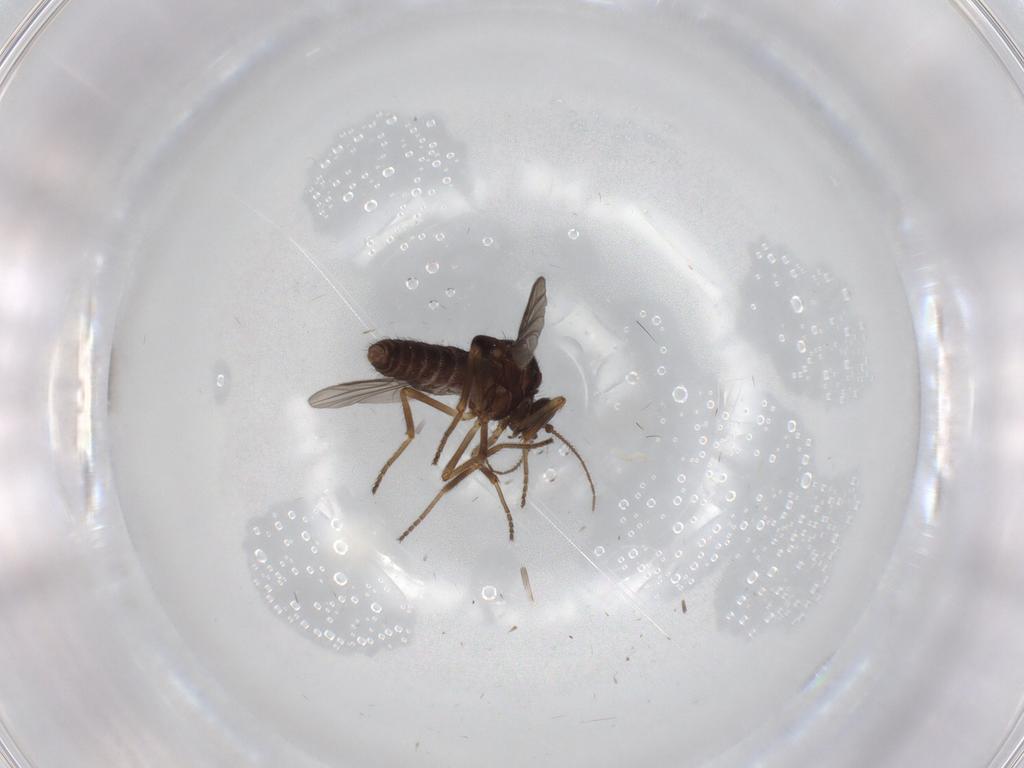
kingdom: Animalia
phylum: Arthropoda
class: Insecta
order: Diptera
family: Ceratopogonidae
